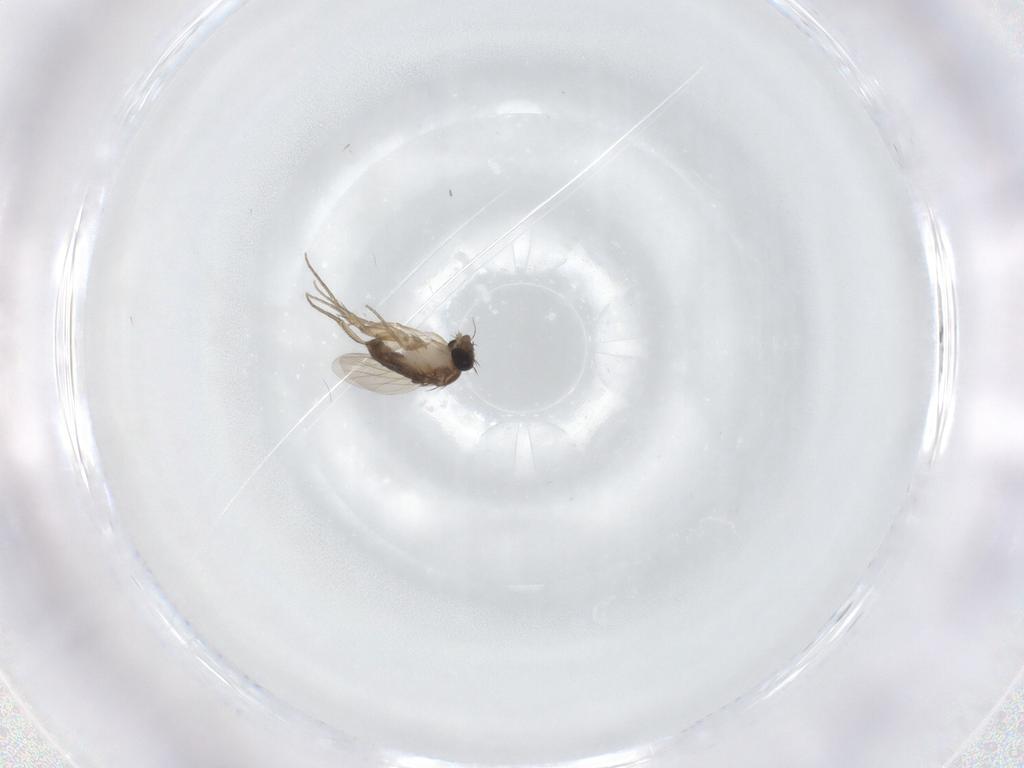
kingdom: Animalia
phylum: Arthropoda
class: Insecta
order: Diptera
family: Phoridae
